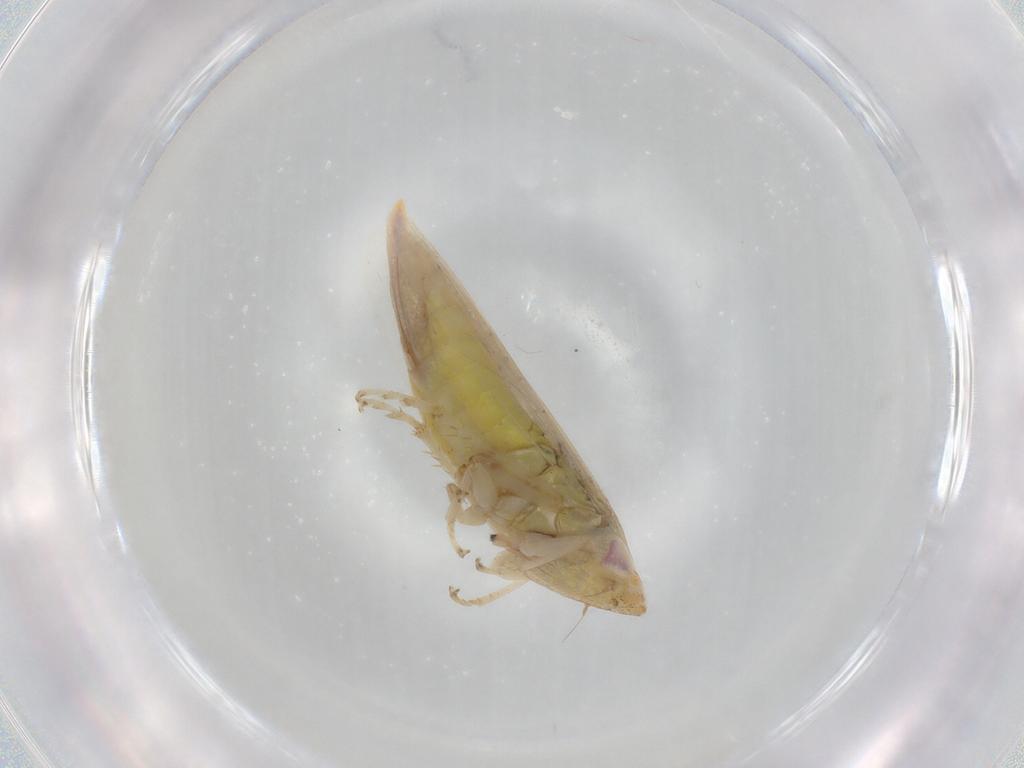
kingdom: Animalia
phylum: Arthropoda
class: Insecta
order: Hemiptera
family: Cicadellidae
